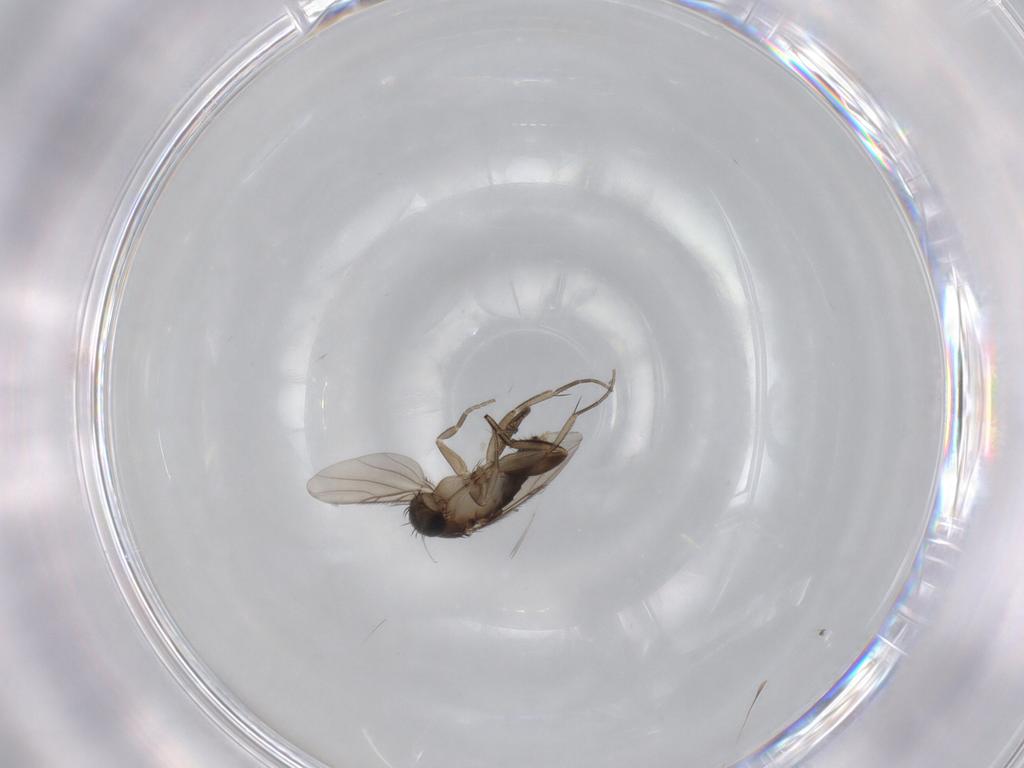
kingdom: Animalia
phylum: Arthropoda
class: Insecta
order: Diptera
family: Phoridae
